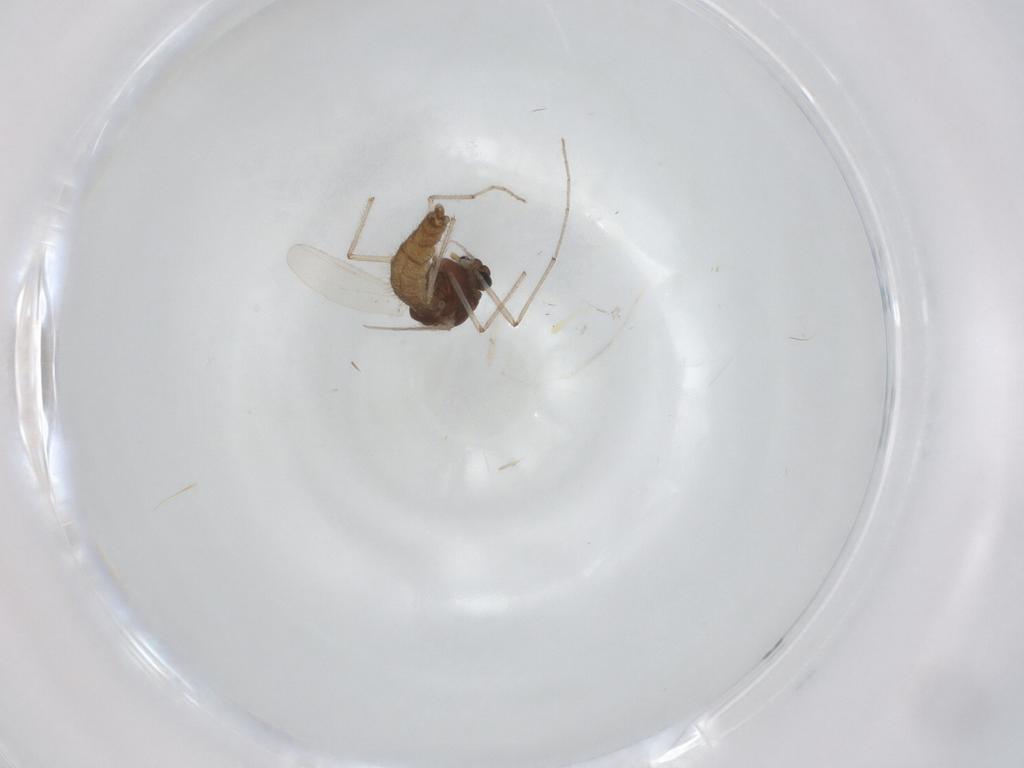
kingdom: Animalia
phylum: Arthropoda
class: Insecta
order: Diptera
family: Chironomidae
